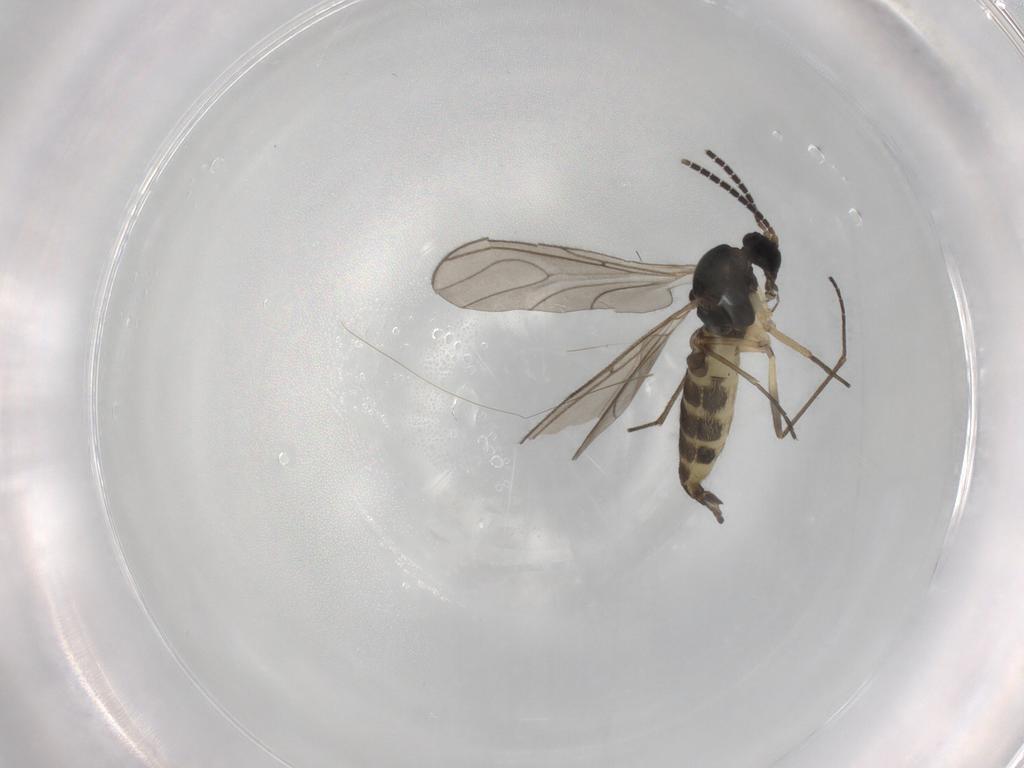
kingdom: Animalia
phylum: Arthropoda
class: Insecta
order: Diptera
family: Sciaridae
